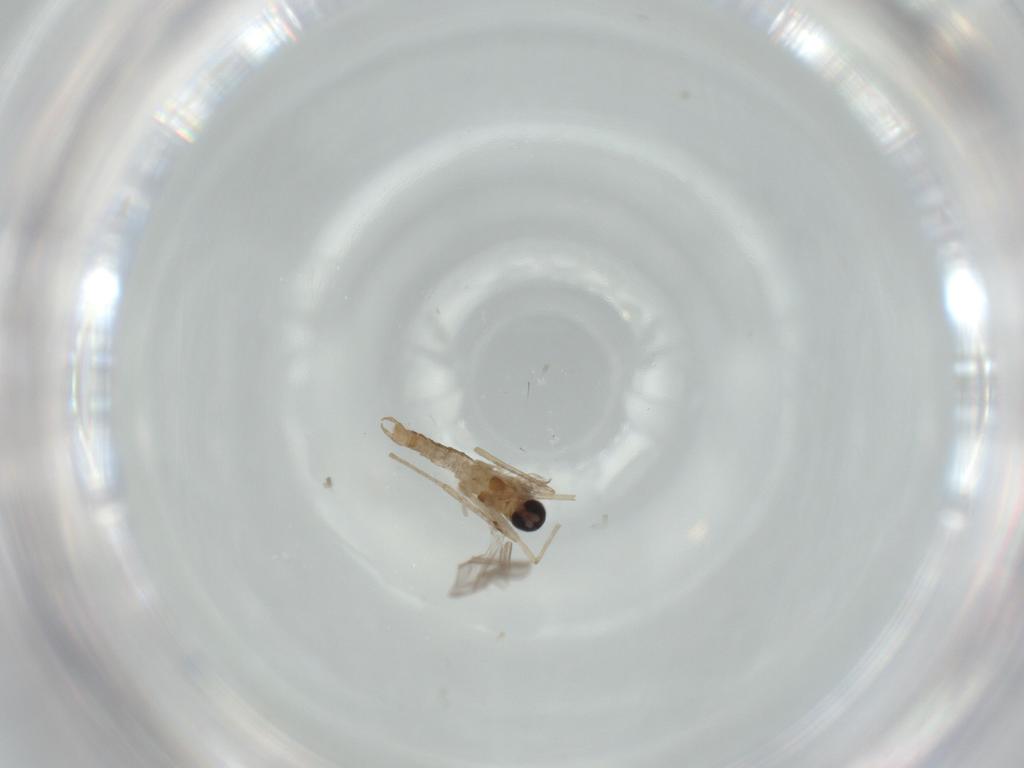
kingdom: Animalia
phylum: Arthropoda
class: Insecta
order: Diptera
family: Cecidomyiidae
